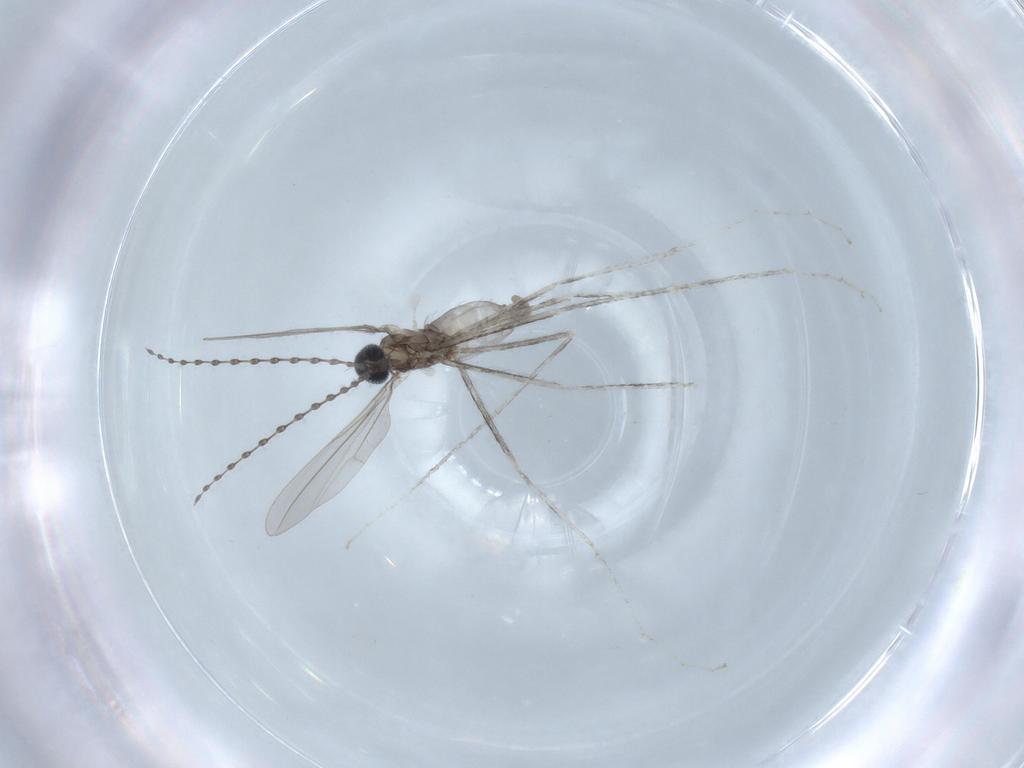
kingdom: Animalia
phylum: Arthropoda
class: Insecta
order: Diptera
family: Cecidomyiidae
